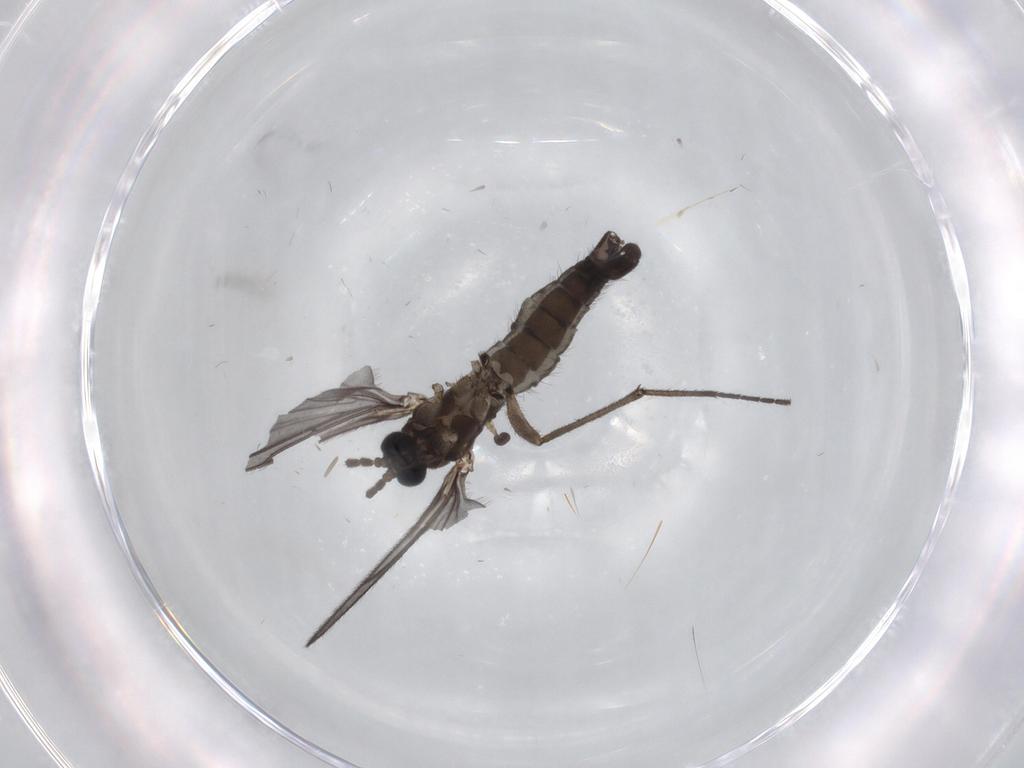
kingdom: Animalia
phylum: Arthropoda
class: Insecta
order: Diptera
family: Sciaridae
